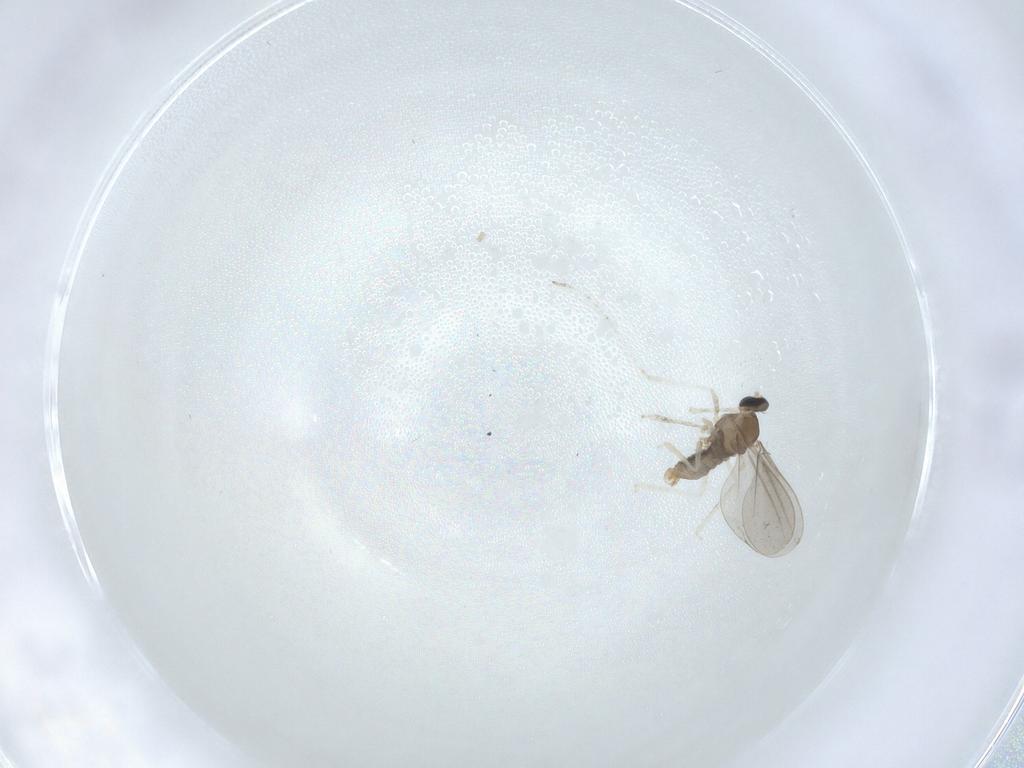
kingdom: Animalia
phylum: Arthropoda
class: Insecta
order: Diptera
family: Cecidomyiidae
